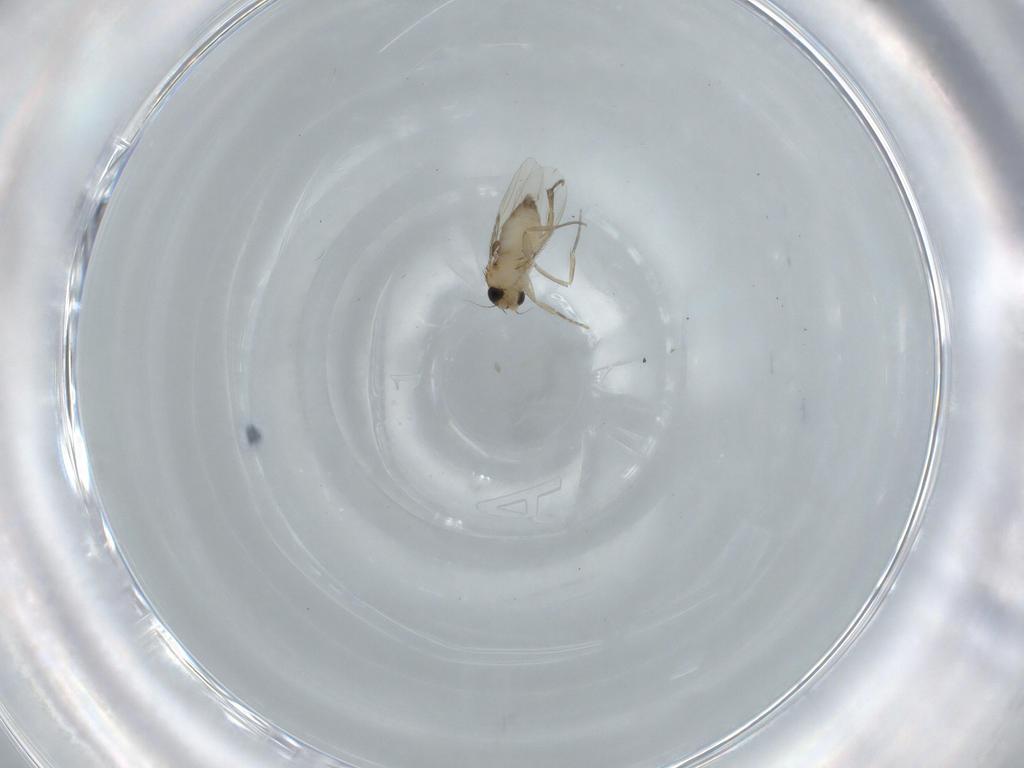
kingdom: Animalia
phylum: Arthropoda
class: Insecta
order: Diptera
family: Phoridae
